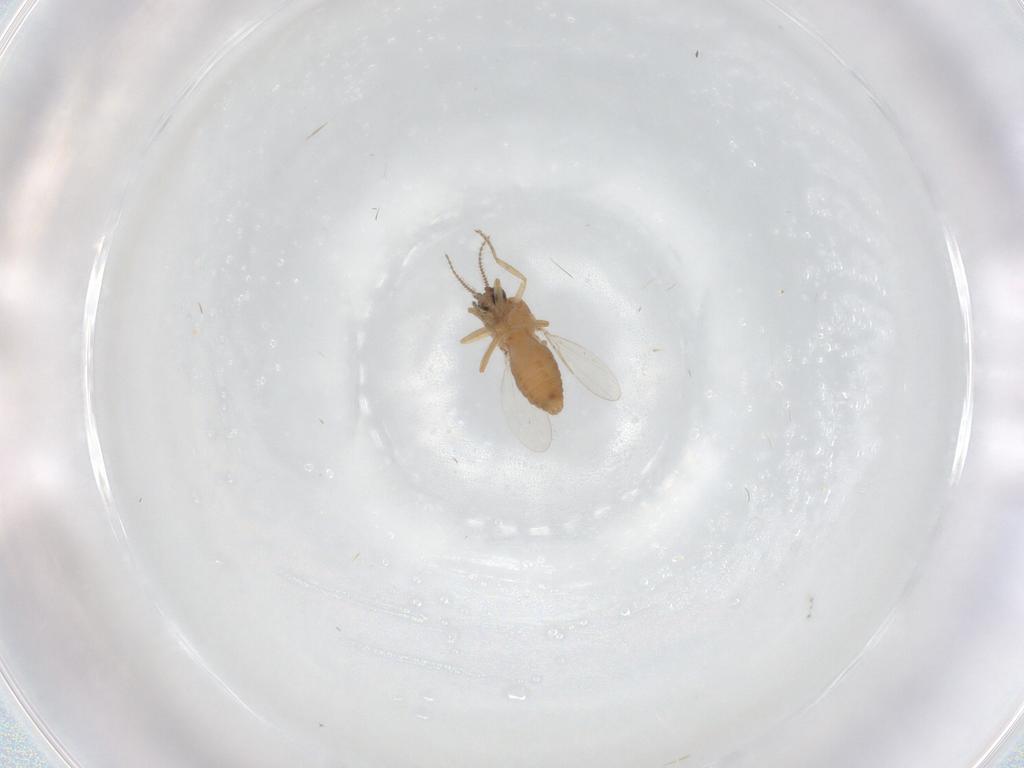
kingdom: Animalia
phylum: Arthropoda
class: Insecta
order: Diptera
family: Ceratopogonidae
